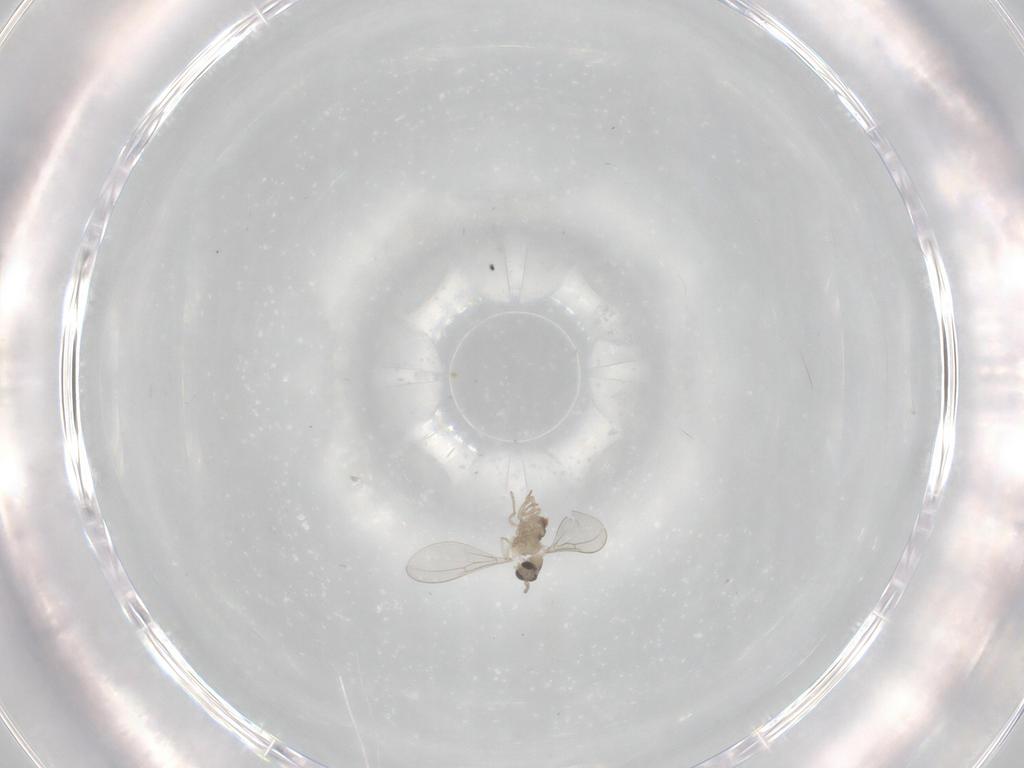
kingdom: Animalia
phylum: Arthropoda
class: Insecta
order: Diptera
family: Cecidomyiidae
